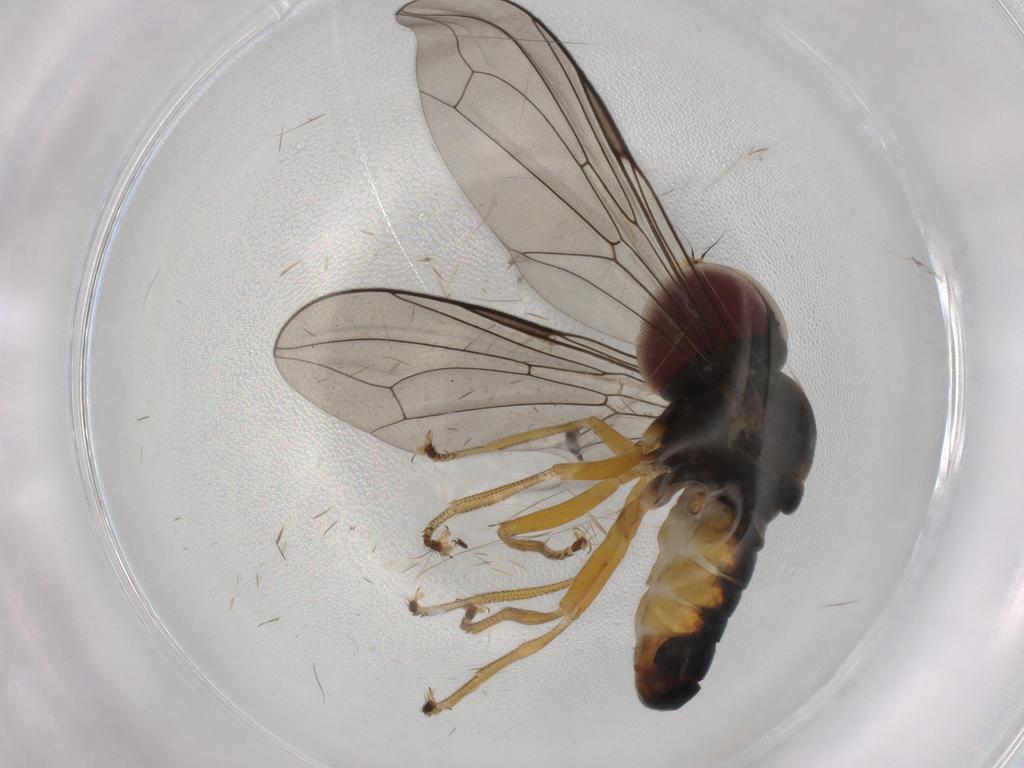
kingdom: Animalia
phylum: Arthropoda
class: Insecta
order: Diptera
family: Pipunculidae
